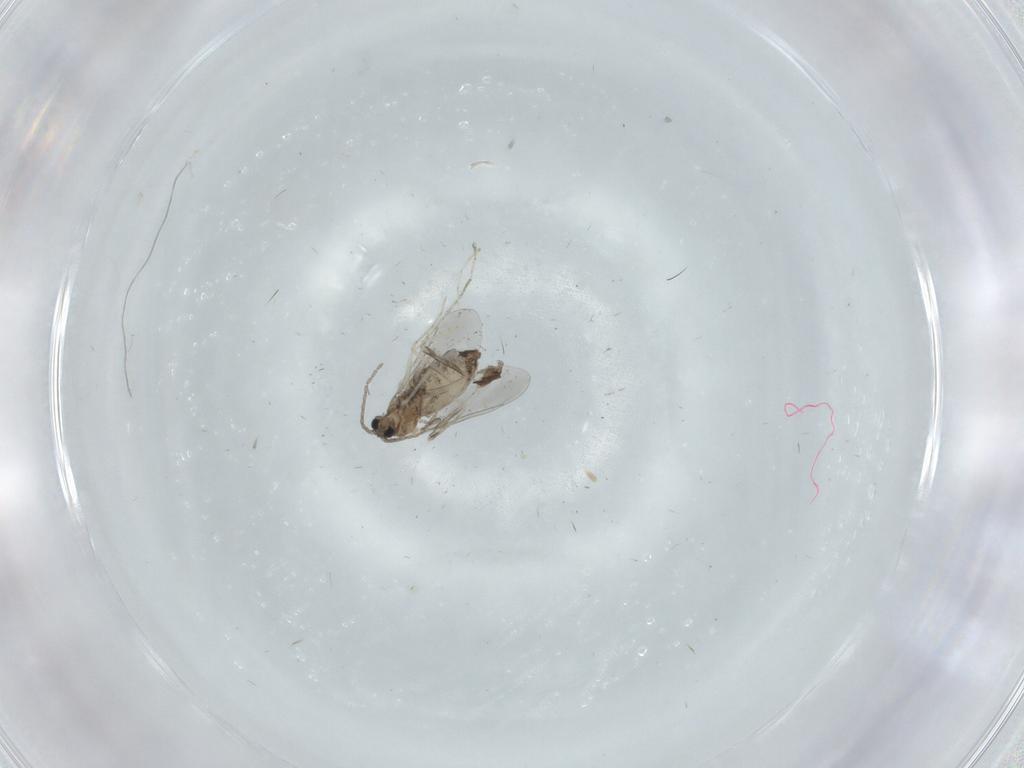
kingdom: Animalia
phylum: Arthropoda
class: Insecta
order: Diptera
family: Cecidomyiidae
